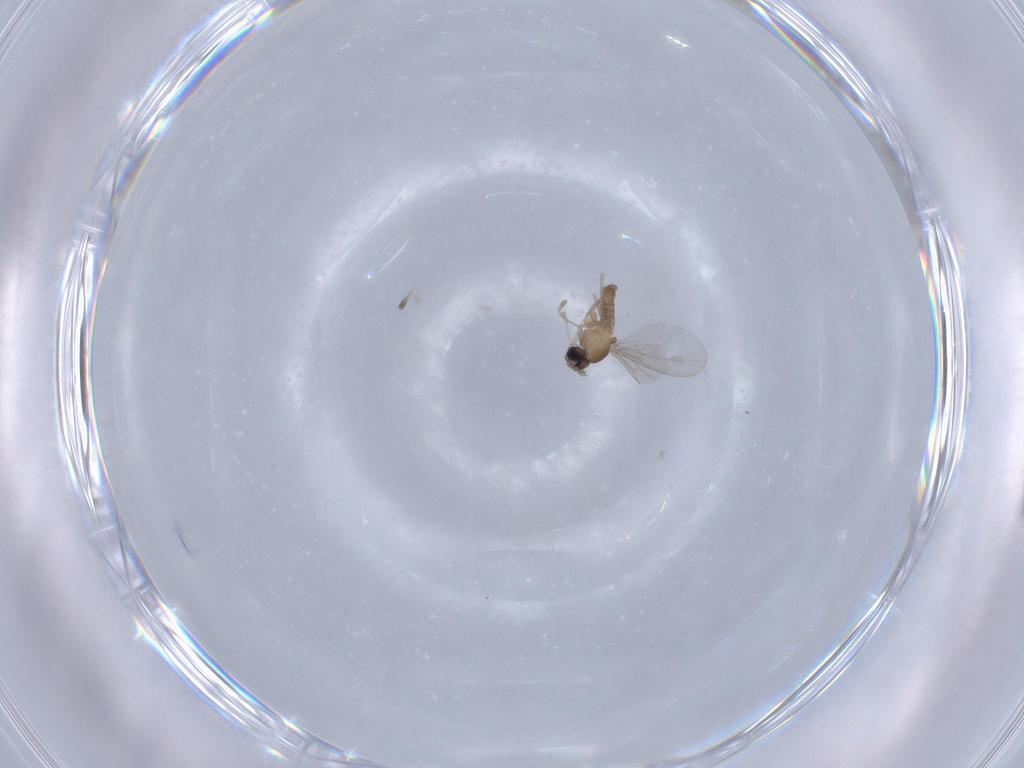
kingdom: Animalia
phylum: Arthropoda
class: Insecta
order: Diptera
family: Cecidomyiidae
